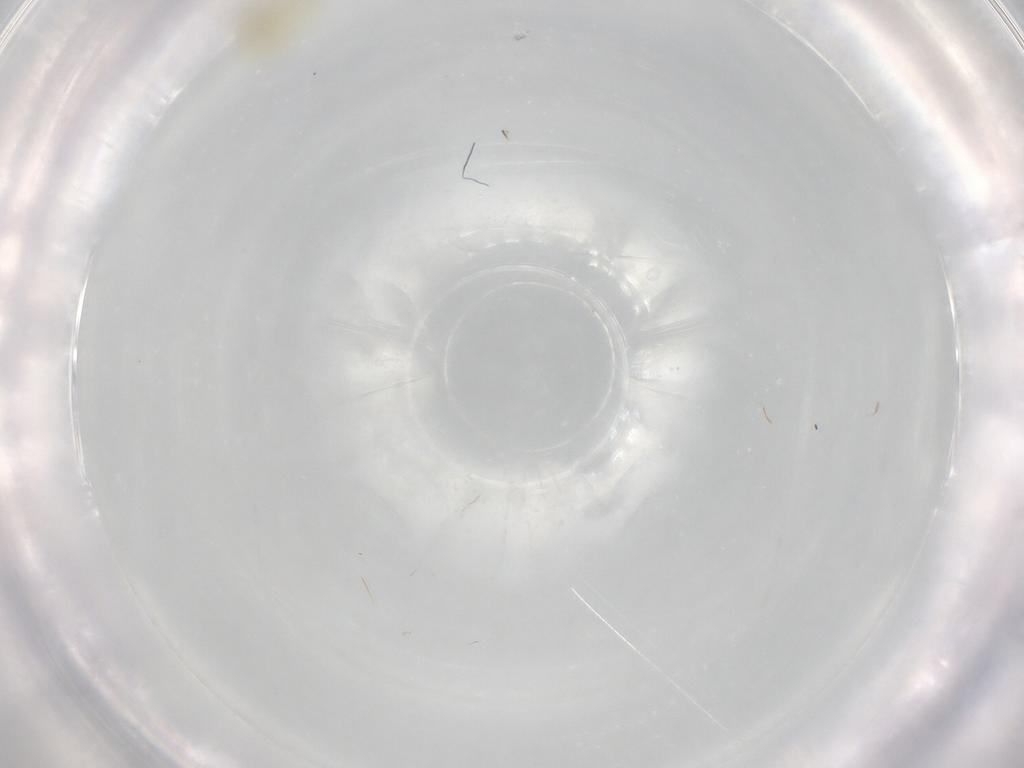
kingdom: Animalia
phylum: Arthropoda
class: Insecta
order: Hemiptera
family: Aleyrodidae
